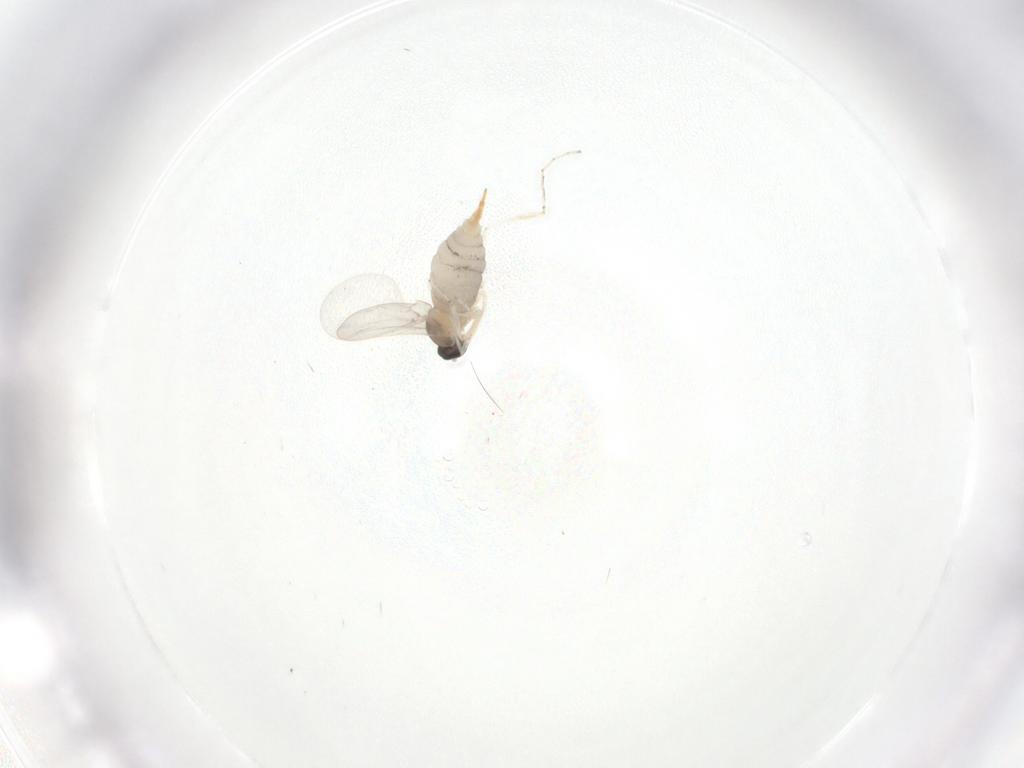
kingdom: Animalia
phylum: Arthropoda
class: Insecta
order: Diptera
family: Cecidomyiidae
